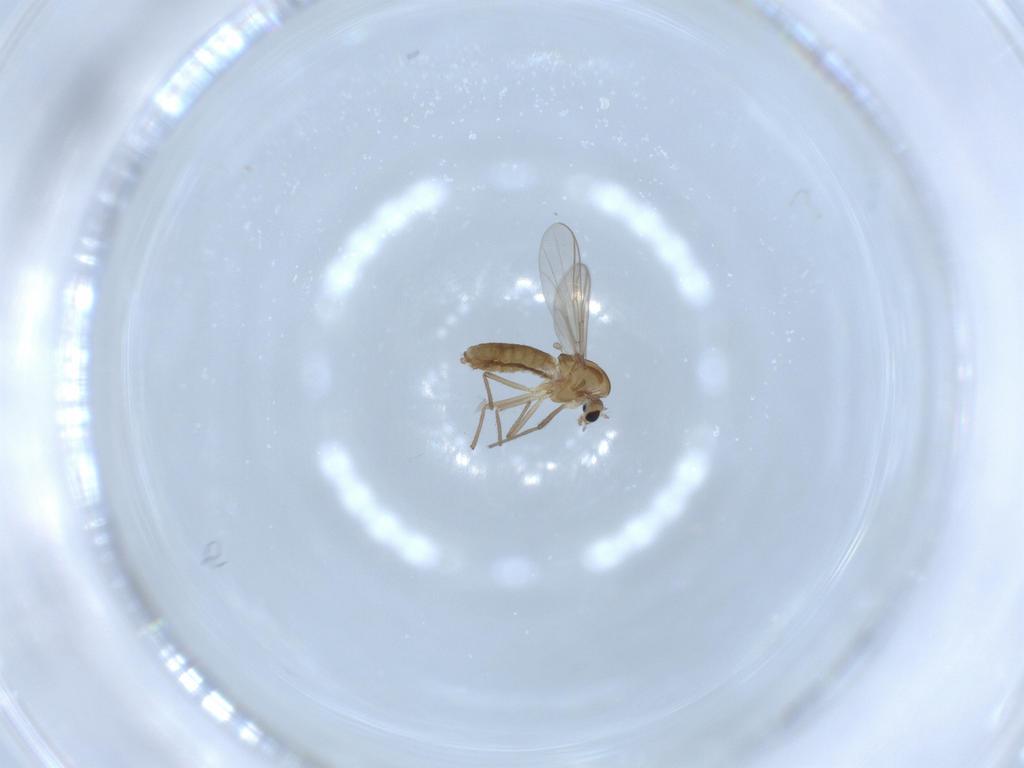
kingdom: Animalia
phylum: Arthropoda
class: Insecta
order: Diptera
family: Chironomidae
